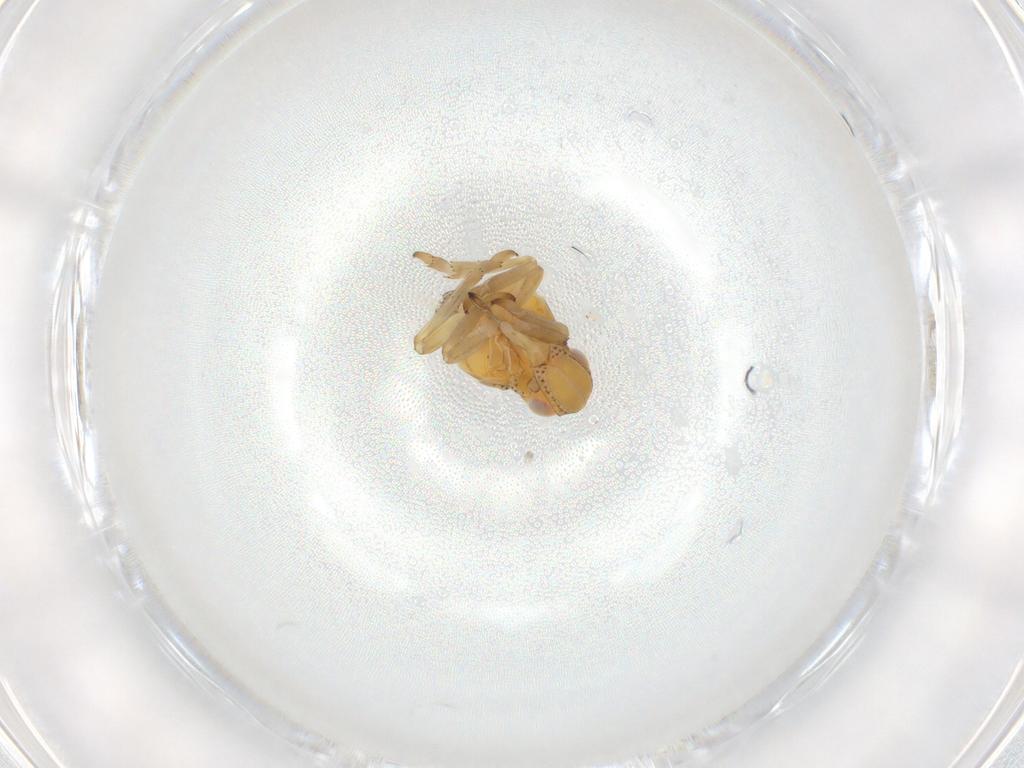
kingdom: Animalia
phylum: Arthropoda
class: Insecta
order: Hemiptera
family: Tropiduchidae
